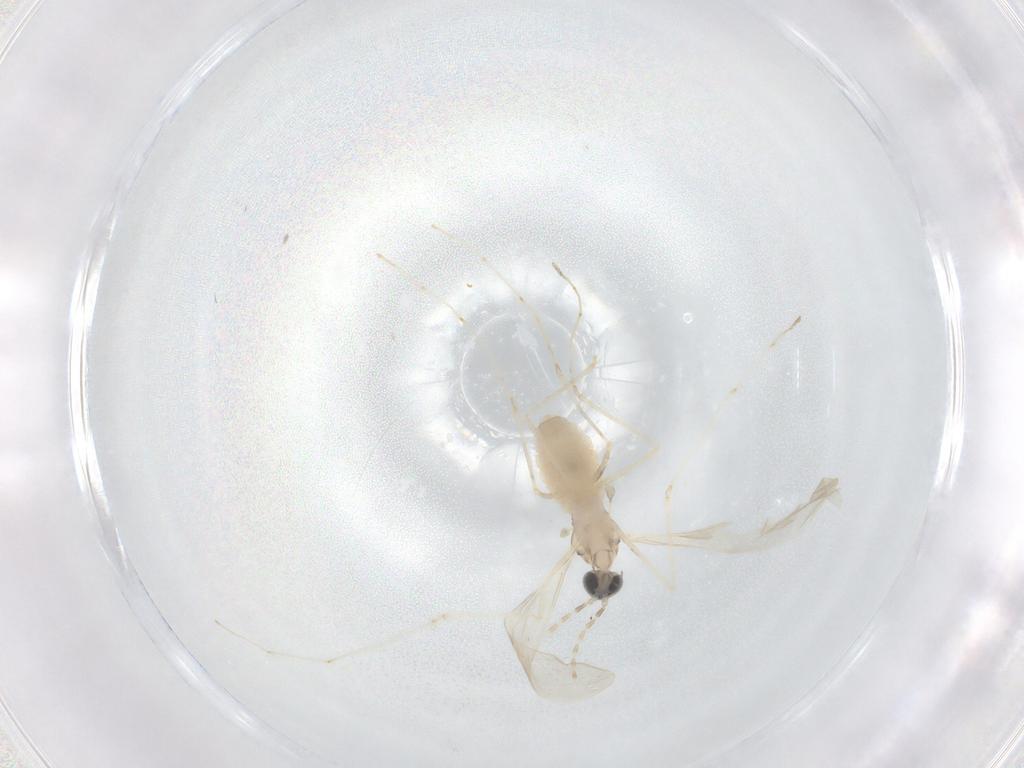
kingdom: Animalia
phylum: Arthropoda
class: Insecta
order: Diptera
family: Cecidomyiidae
